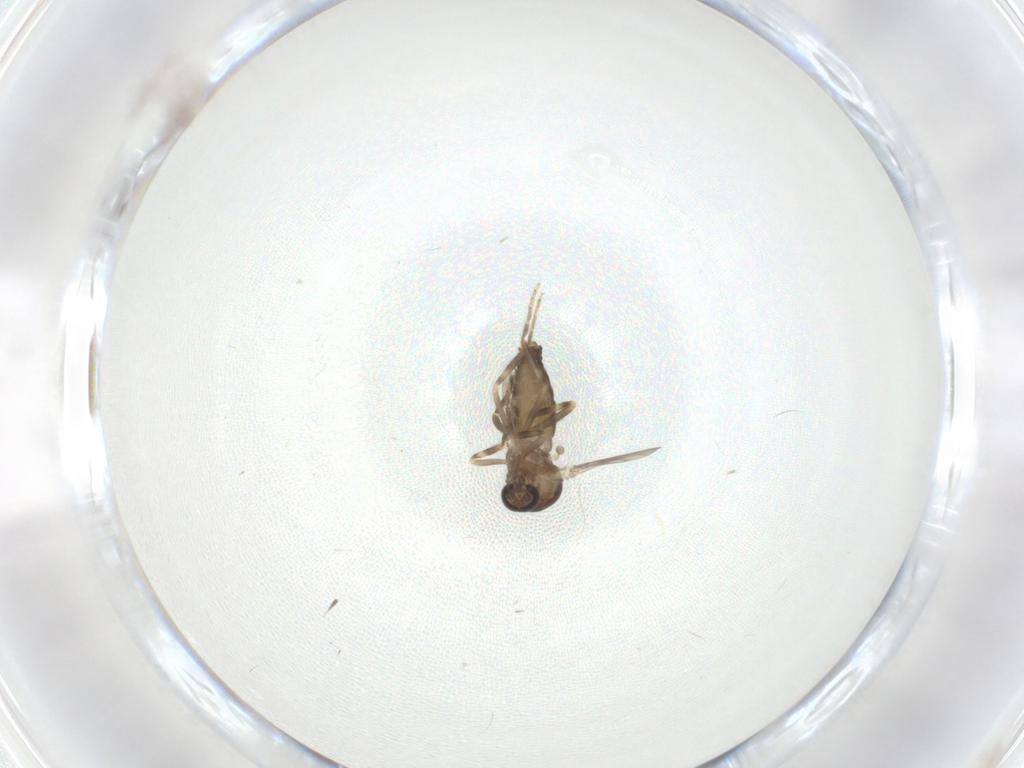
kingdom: Animalia
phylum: Arthropoda
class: Insecta
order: Diptera
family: Ceratopogonidae
